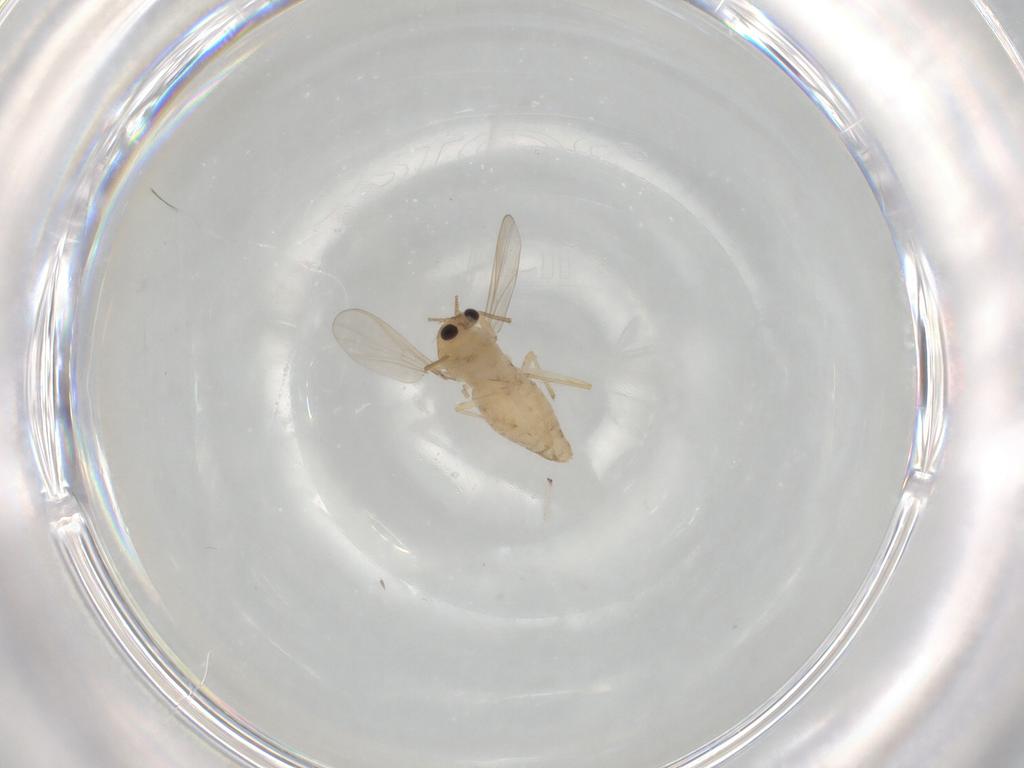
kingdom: Animalia
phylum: Arthropoda
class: Insecta
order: Diptera
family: Chironomidae
